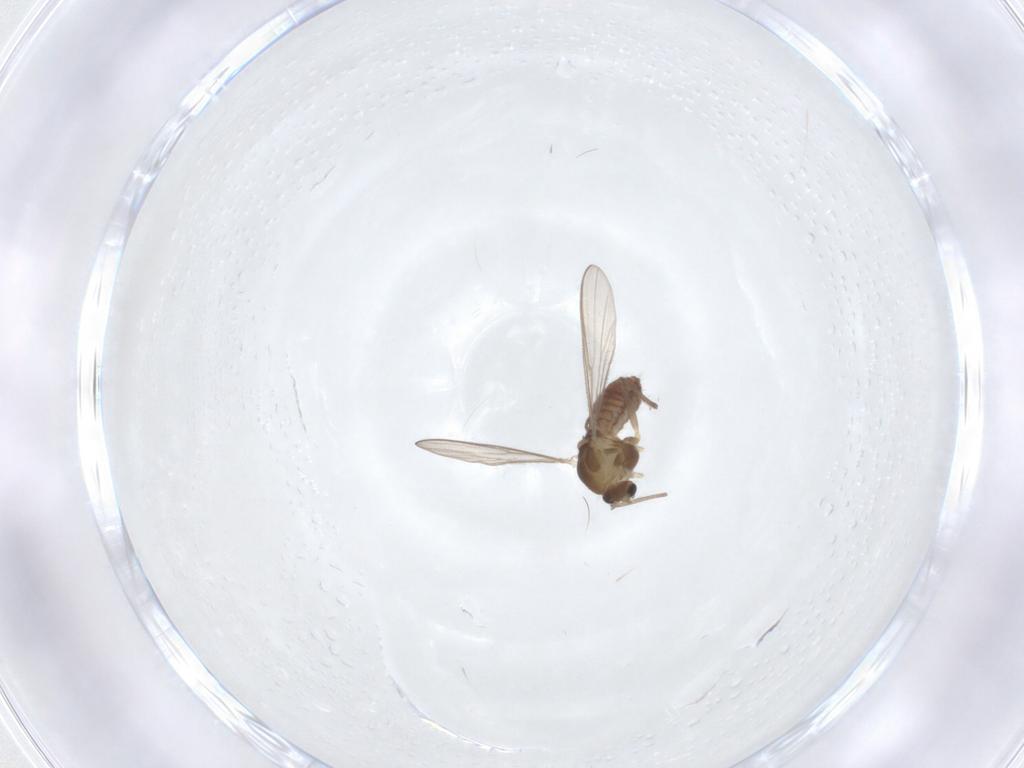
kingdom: Animalia
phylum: Arthropoda
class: Insecta
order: Diptera
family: Chironomidae
